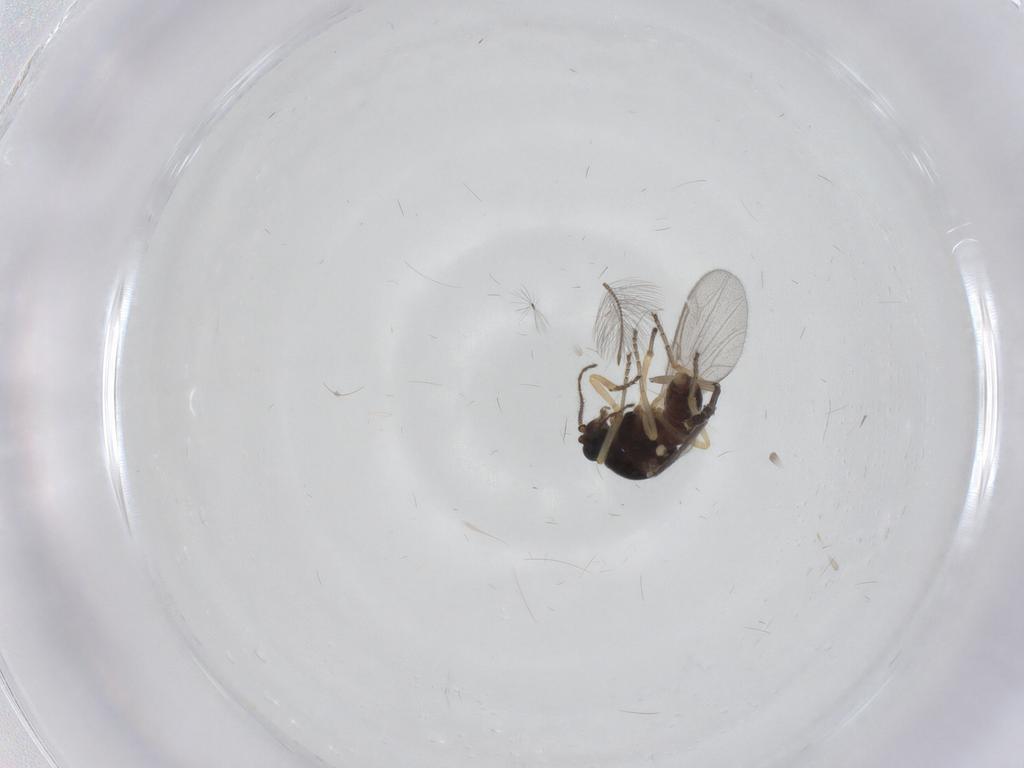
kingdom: Animalia
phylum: Arthropoda
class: Insecta
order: Diptera
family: Ceratopogonidae
